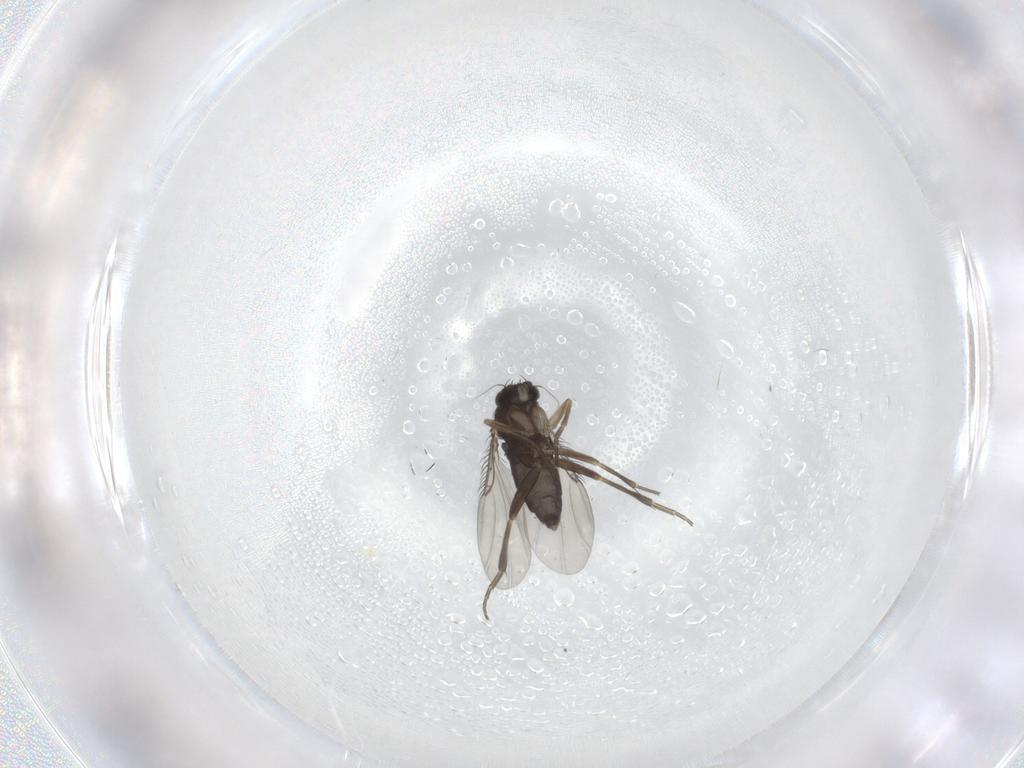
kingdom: Animalia
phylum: Arthropoda
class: Insecta
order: Diptera
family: Phoridae
